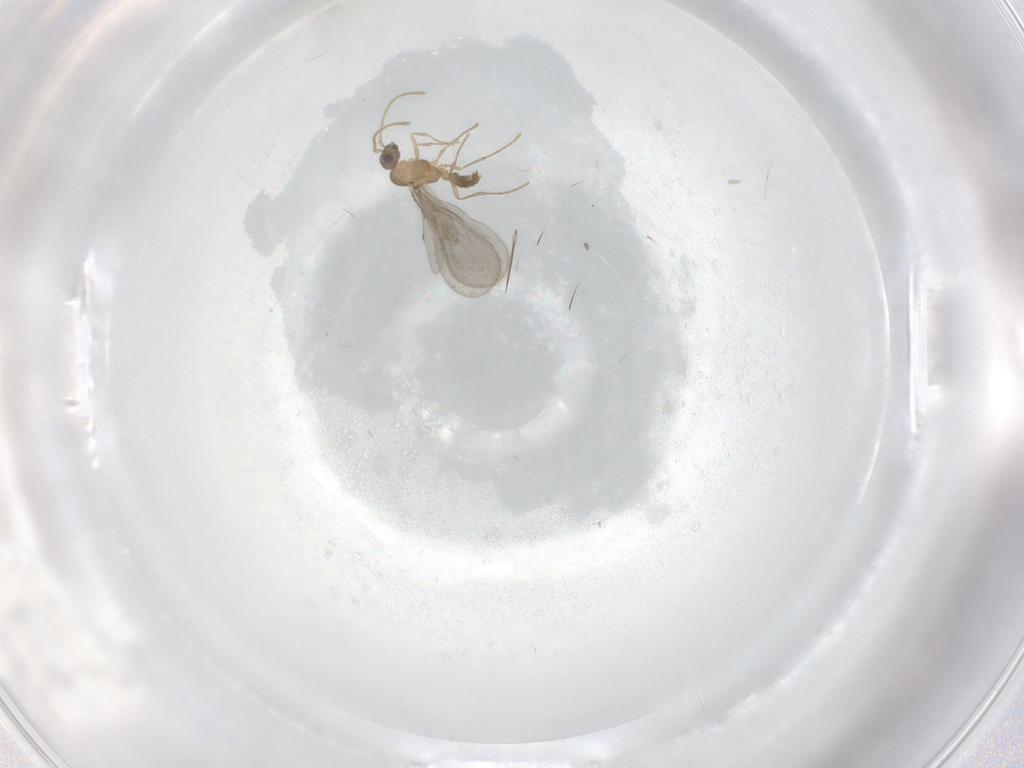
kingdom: Animalia
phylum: Arthropoda
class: Insecta
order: Hymenoptera
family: Formicidae
